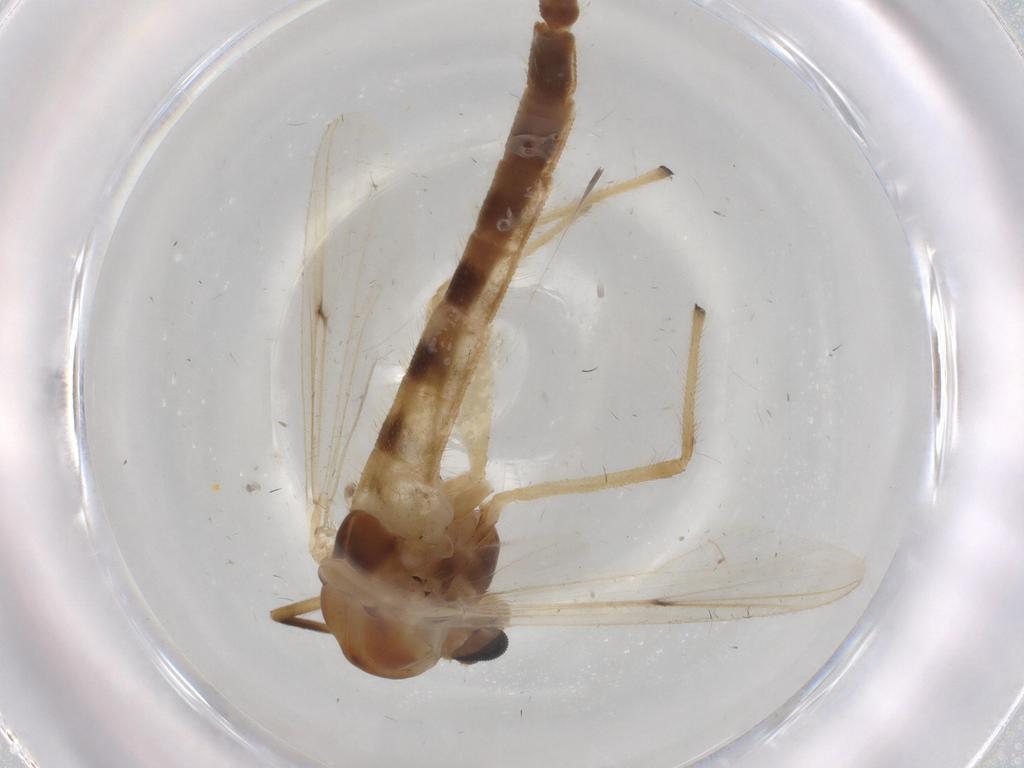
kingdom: Animalia
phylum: Arthropoda
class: Insecta
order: Diptera
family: Chironomidae
